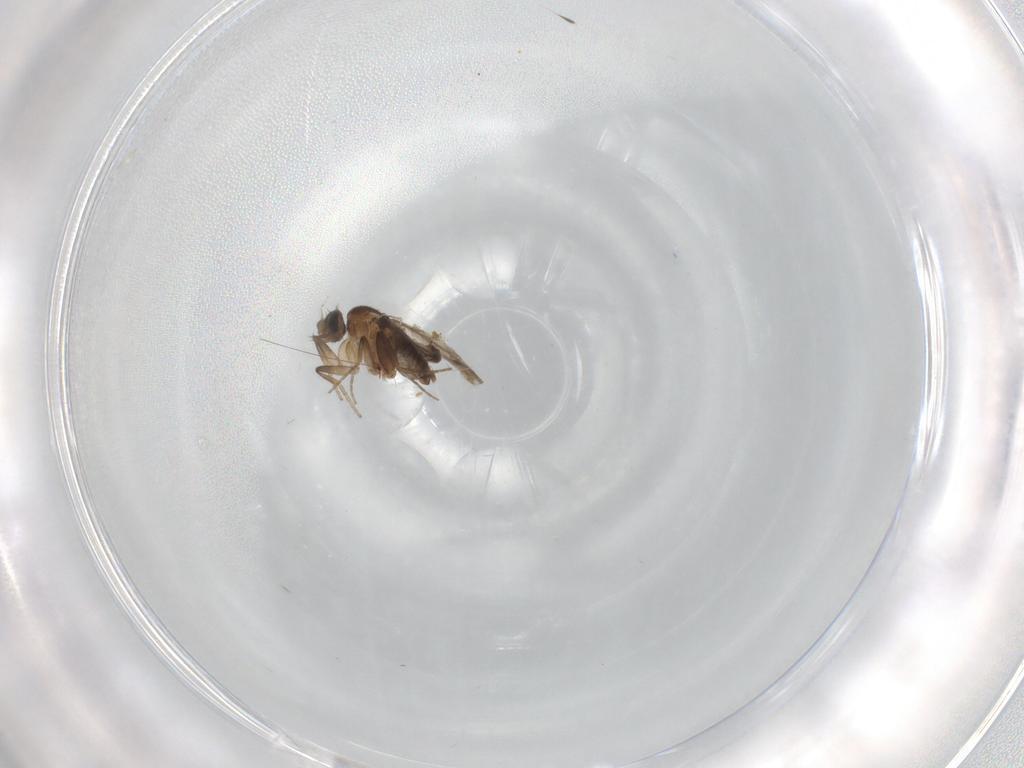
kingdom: Animalia
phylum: Arthropoda
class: Insecta
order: Diptera
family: Phoridae
